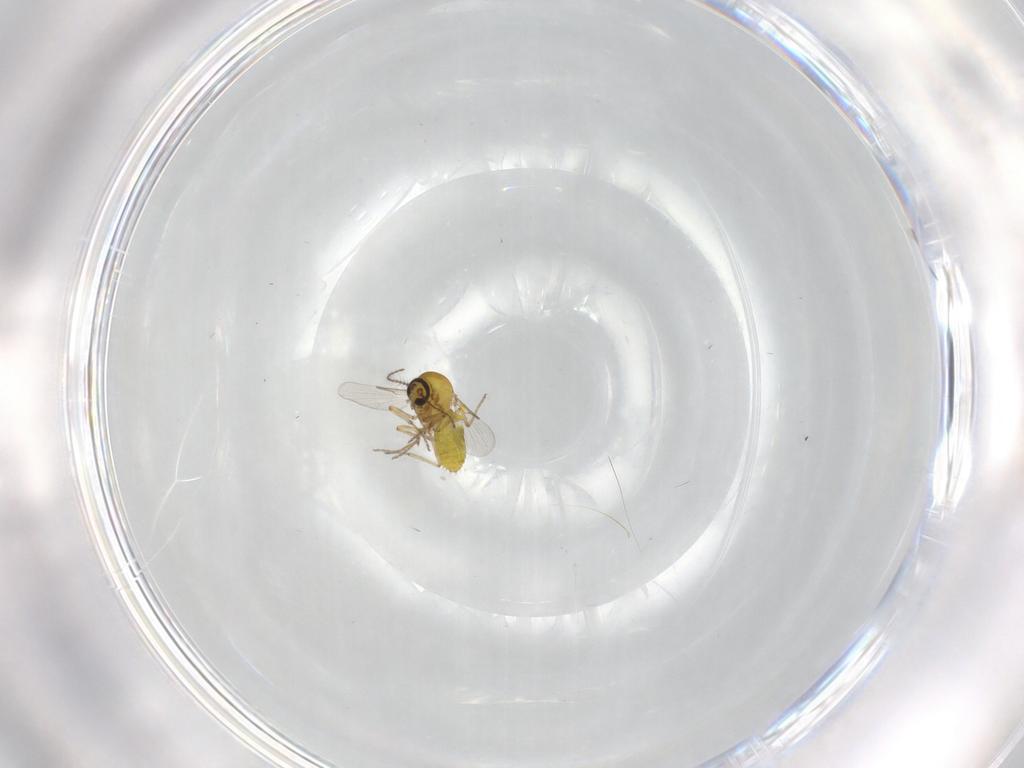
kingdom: Animalia
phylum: Arthropoda
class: Insecta
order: Diptera
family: Ceratopogonidae
